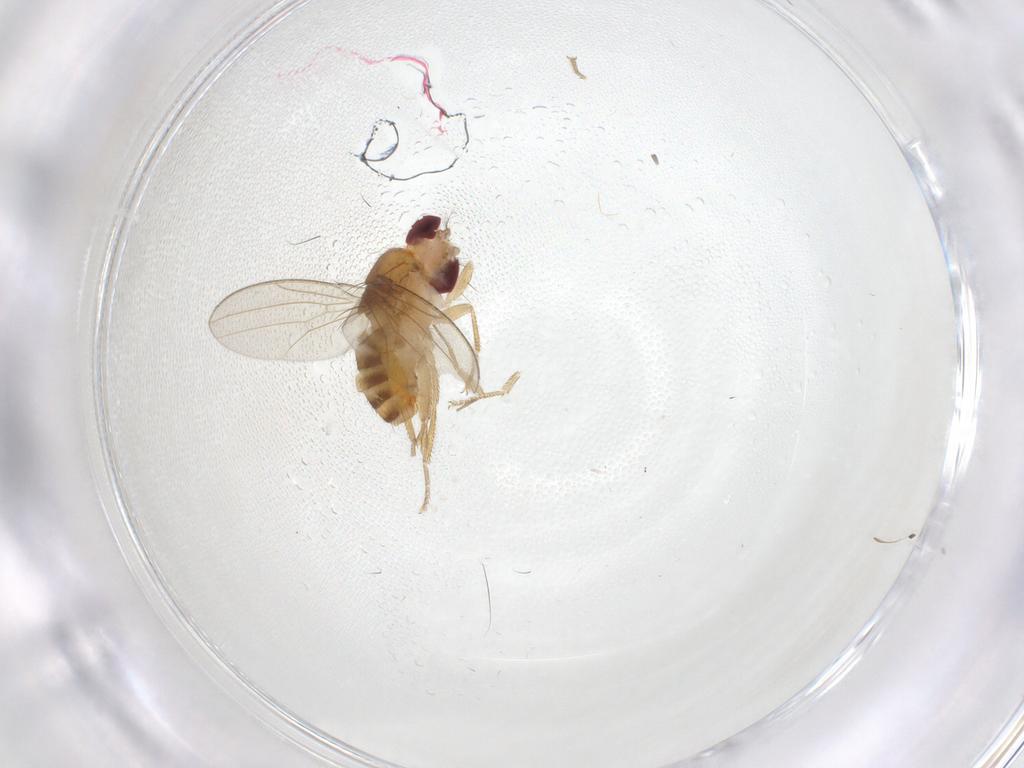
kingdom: Animalia
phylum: Arthropoda
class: Insecta
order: Diptera
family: Drosophilidae
